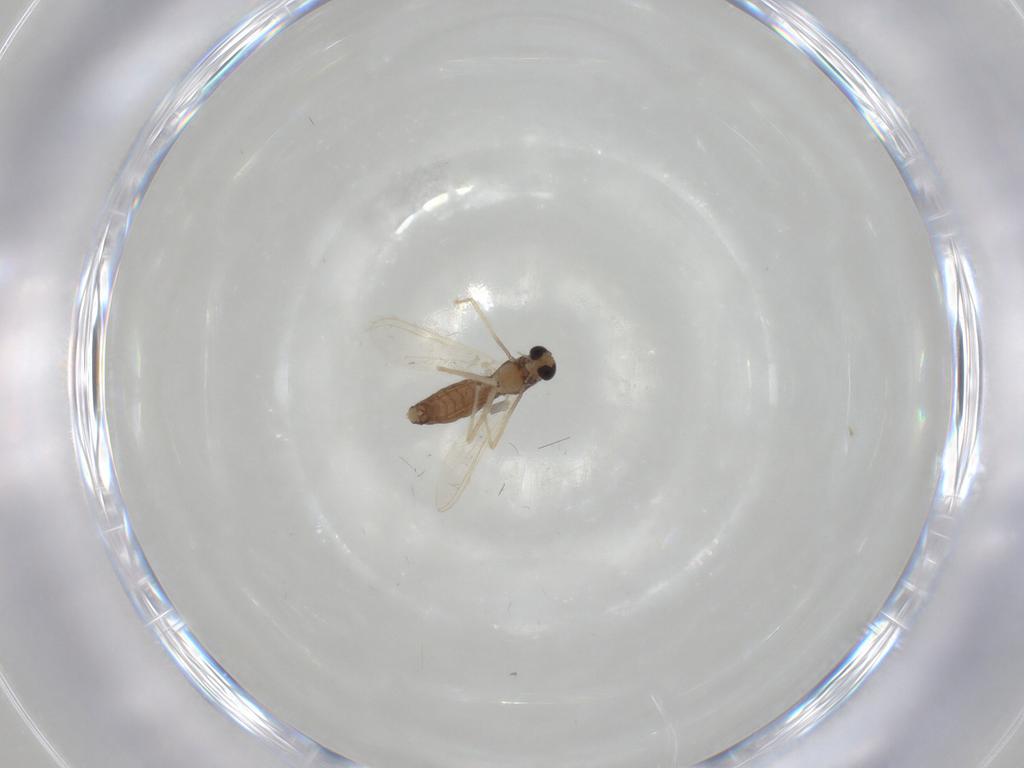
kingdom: Animalia
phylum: Arthropoda
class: Insecta
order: Diptera
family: Chironomidae
